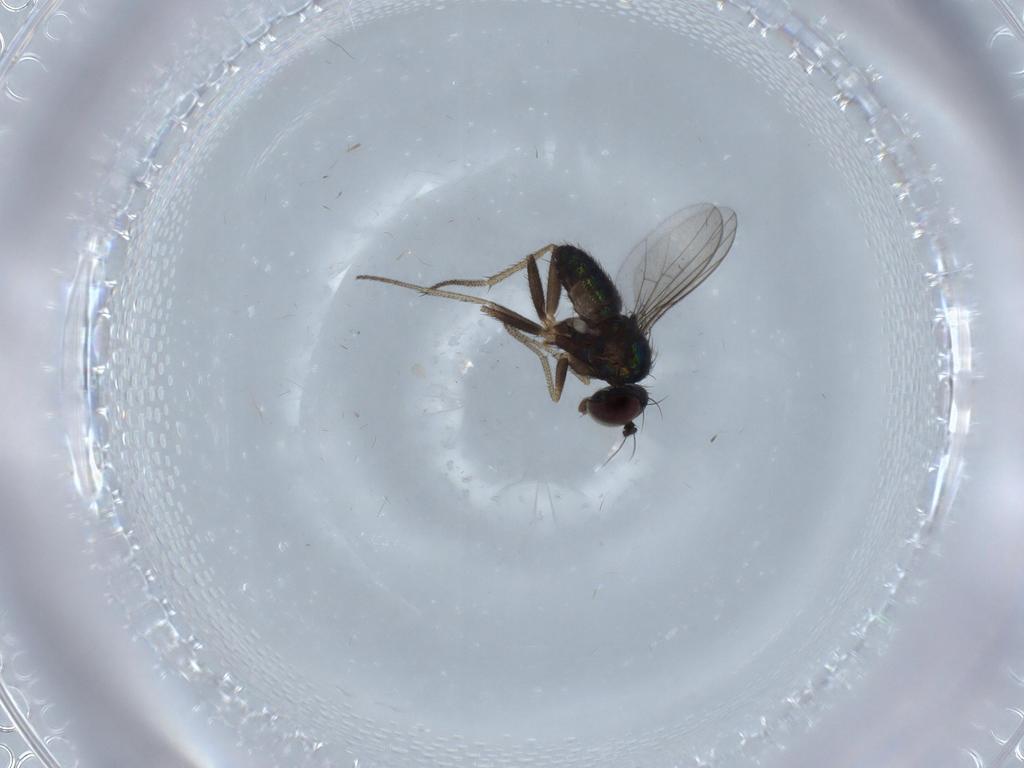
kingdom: Animalia
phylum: Arthropoda
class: Insecta
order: Diptera
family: Dolichopodidae
